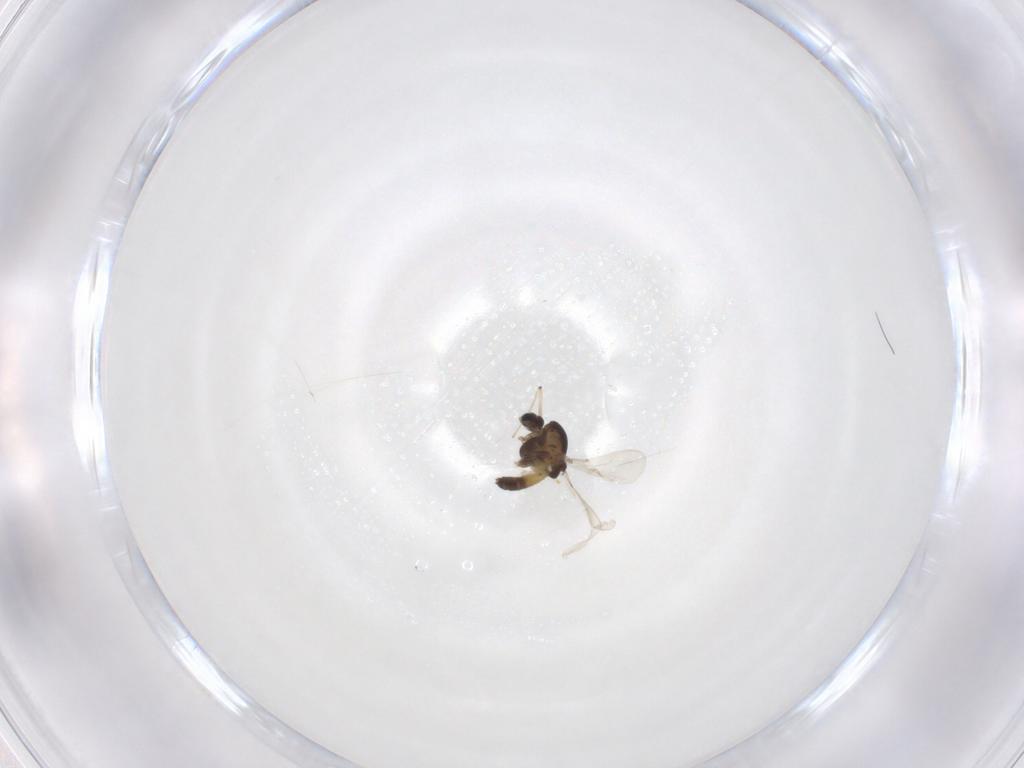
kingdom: Animalia
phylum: Arthropoda
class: Insecta
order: Diptera
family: Chironomidae
